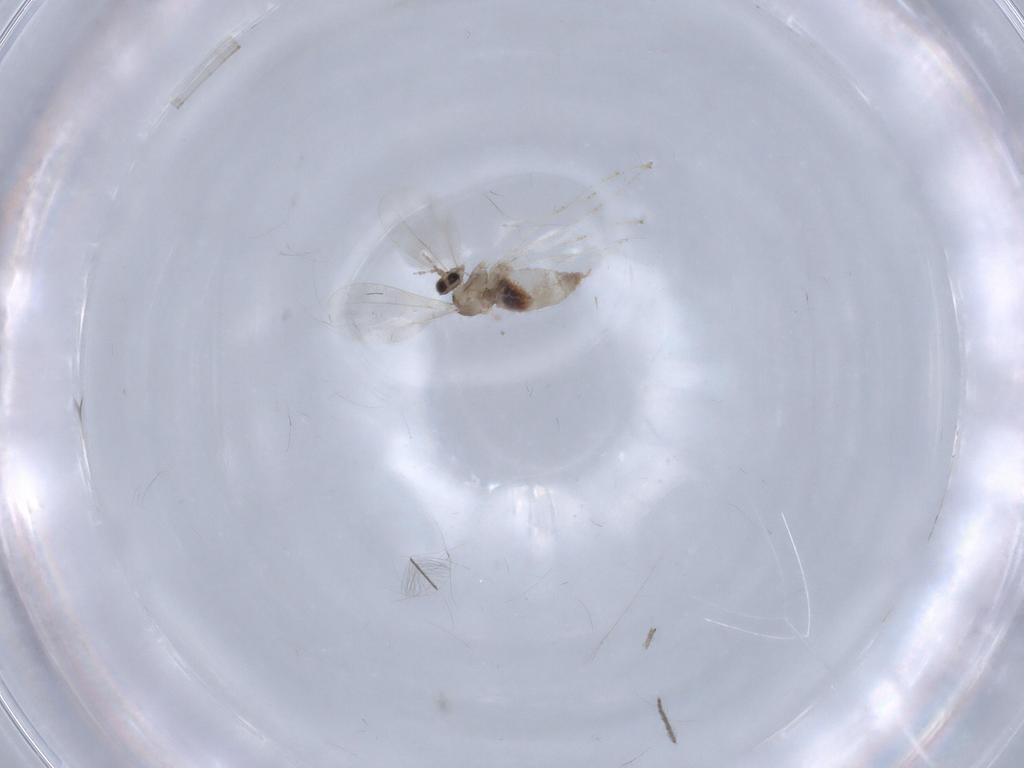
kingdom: Animalia
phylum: Arthropoda
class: Insecta
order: Diptera
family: Cecidomyiidae
